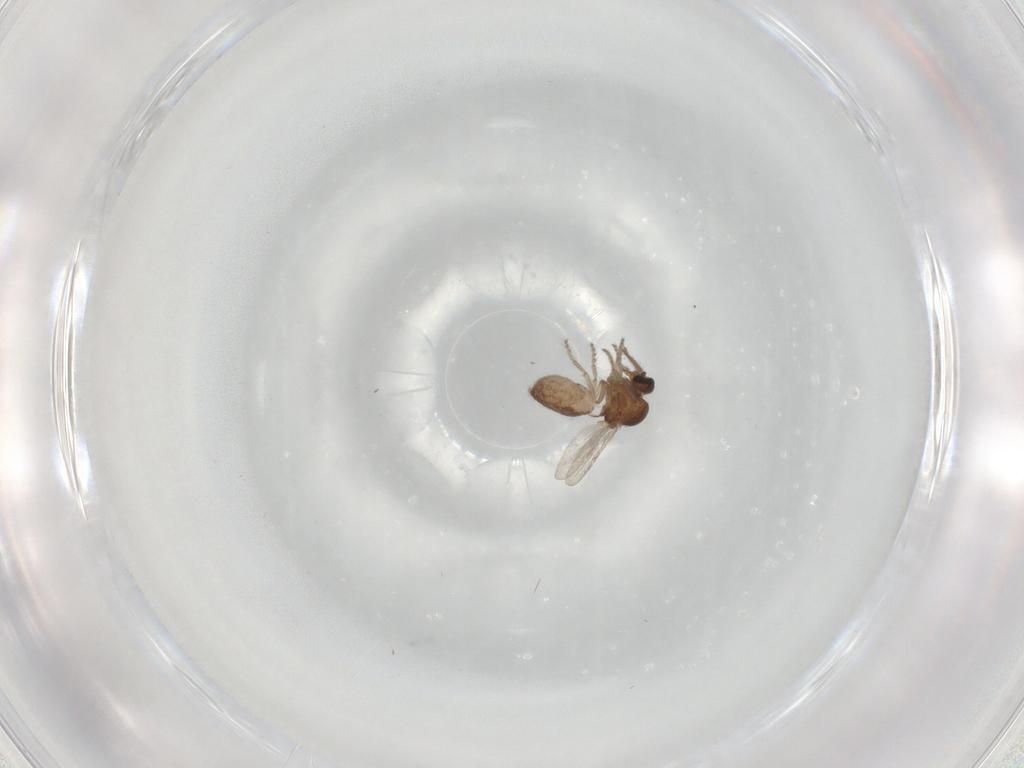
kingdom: Animalia
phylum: Arthropoda
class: Insecta
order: Diptera
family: Ceratopogonidae
